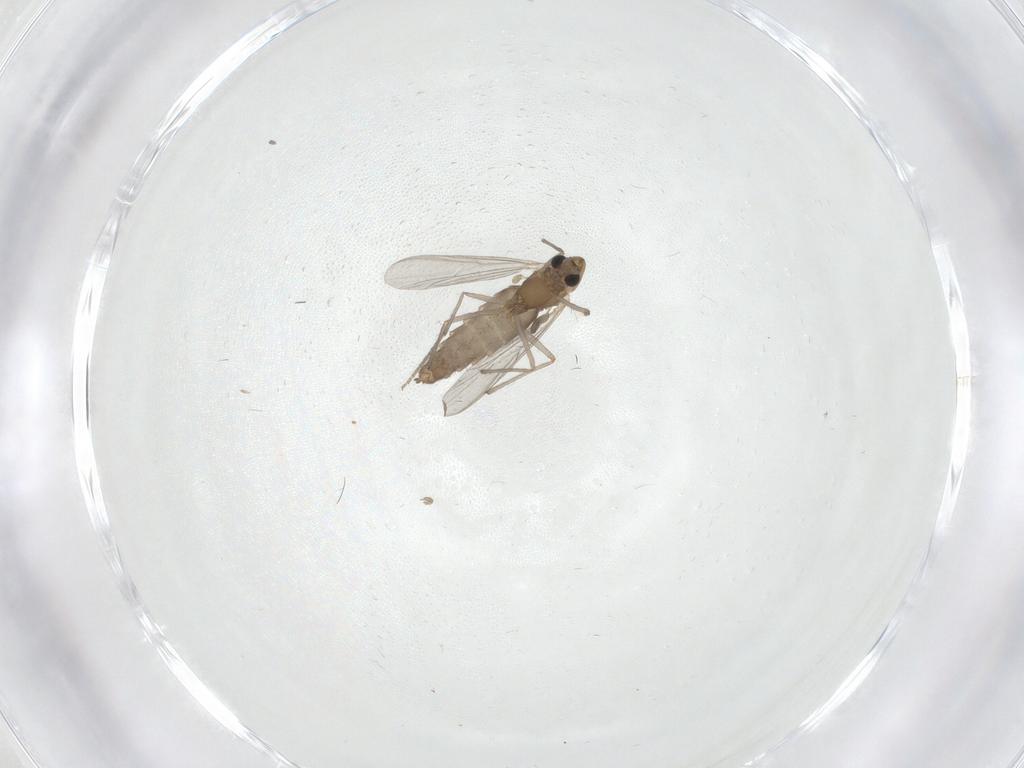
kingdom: Animalia
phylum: Arthropoda
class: Insecta
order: Diptera
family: Chironomidae
